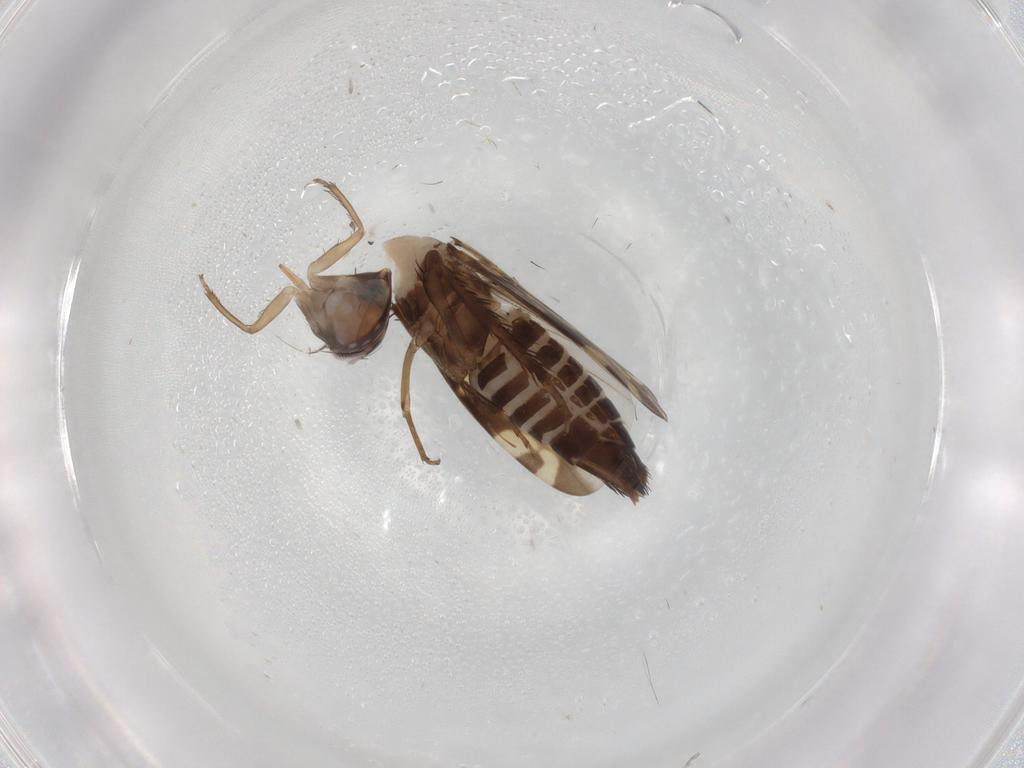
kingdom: Animalia
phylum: Arthropoda
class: Insecta
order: Hemiptera
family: Cicadellidae
